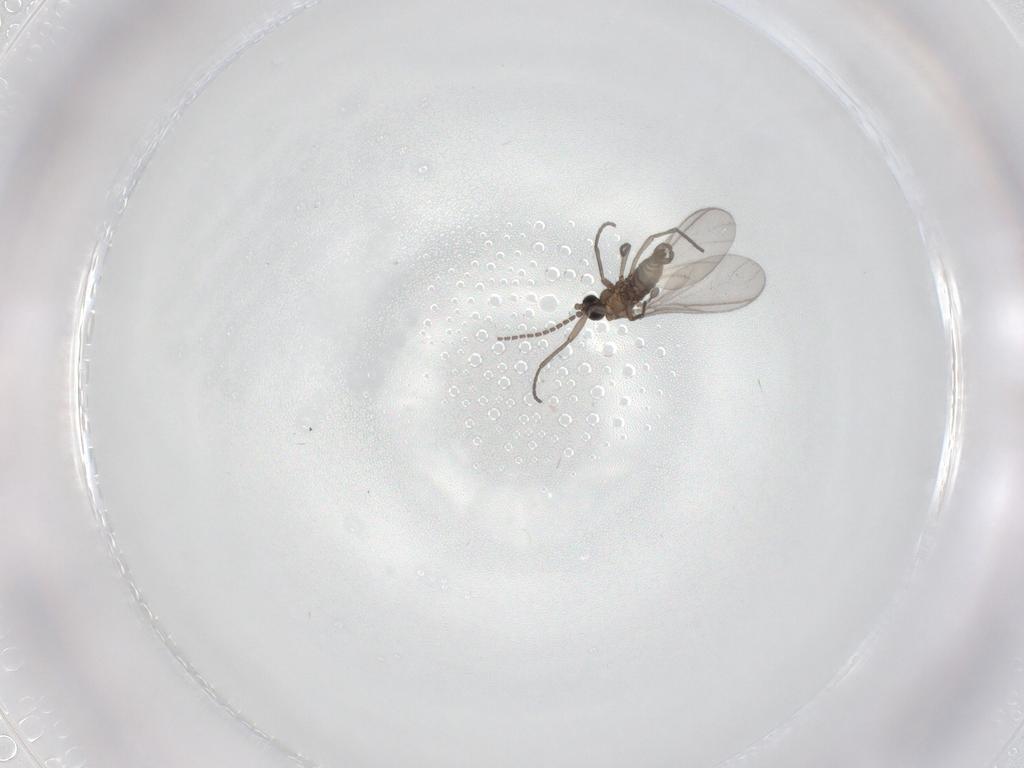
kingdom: Animalia
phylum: Arthropoda
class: Insecta
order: Diptera
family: Sciaridae
